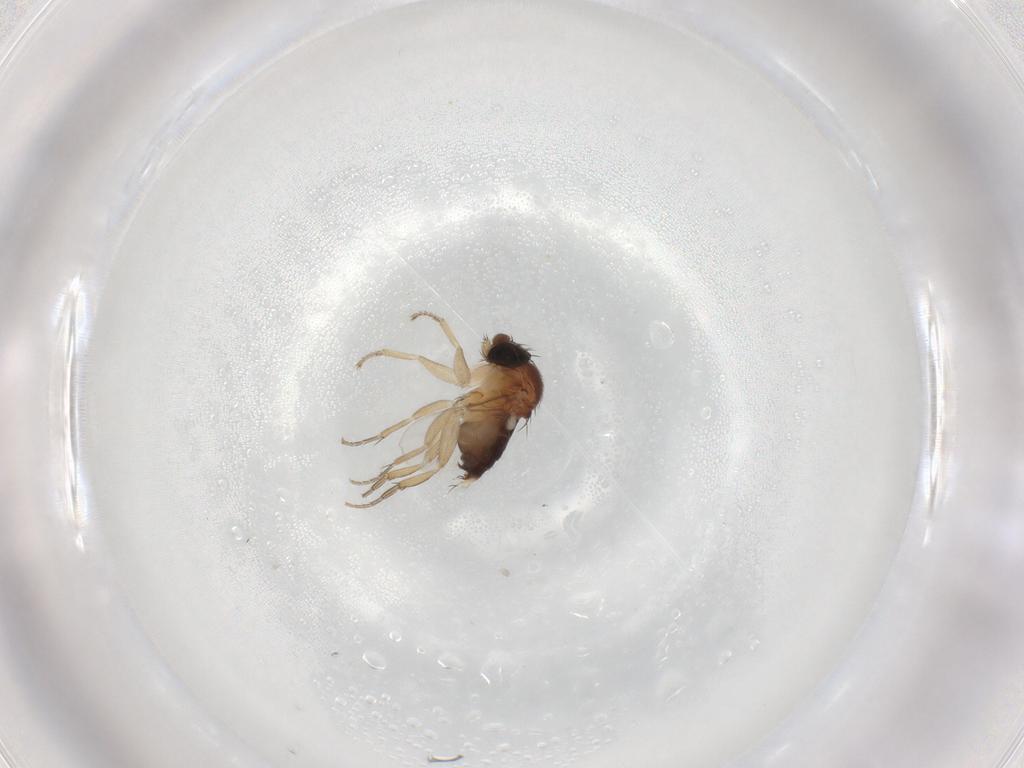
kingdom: Animalia
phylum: Arthropoda
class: Insecta
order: Diptera
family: Phoridae
